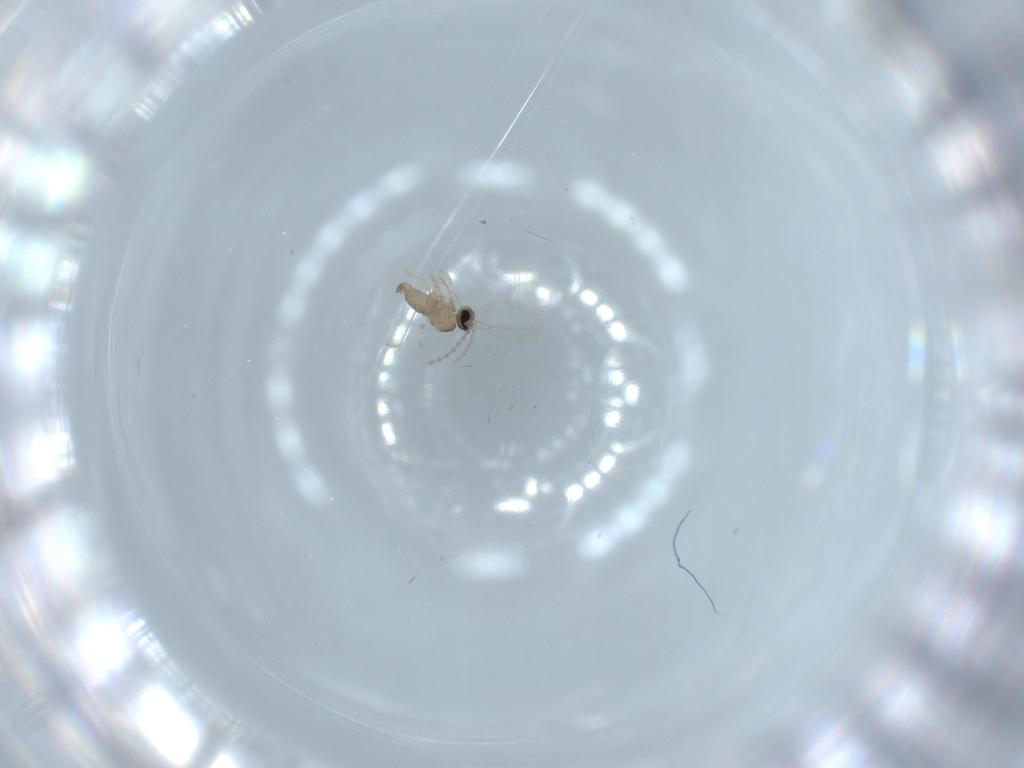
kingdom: Animalia
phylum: Arthropoda
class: Insecta
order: Diptera
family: Cecidomyiidae
